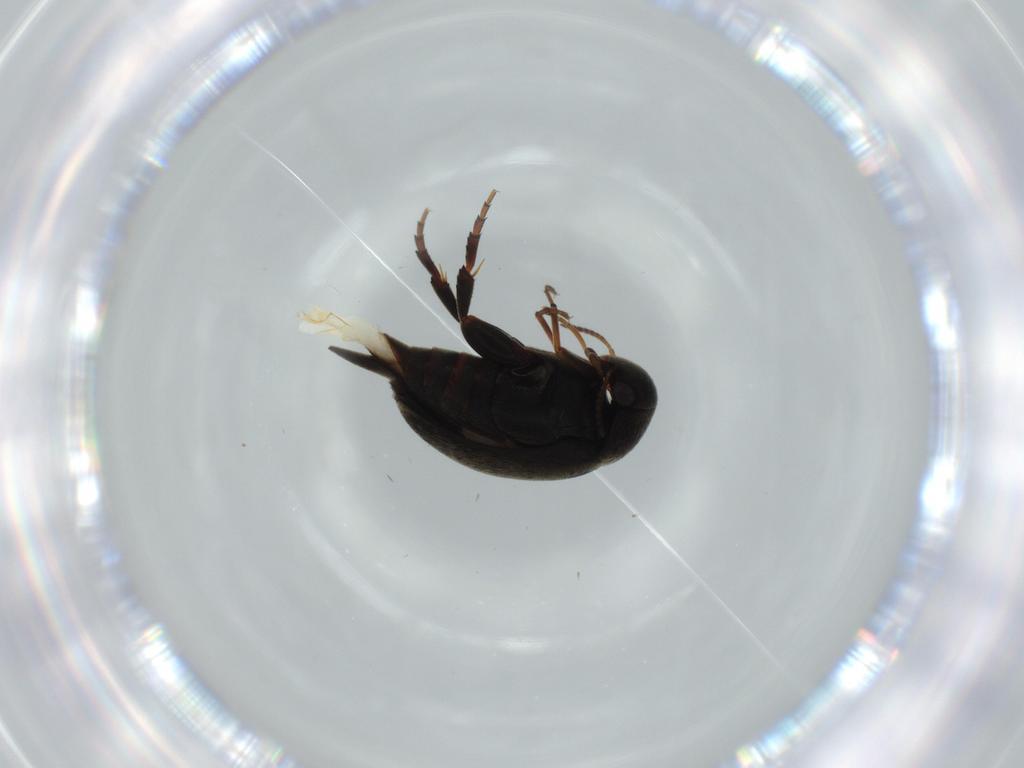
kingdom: Animalia
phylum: Arthropoda
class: Insecta
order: Coleoptera
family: Mordellidae
